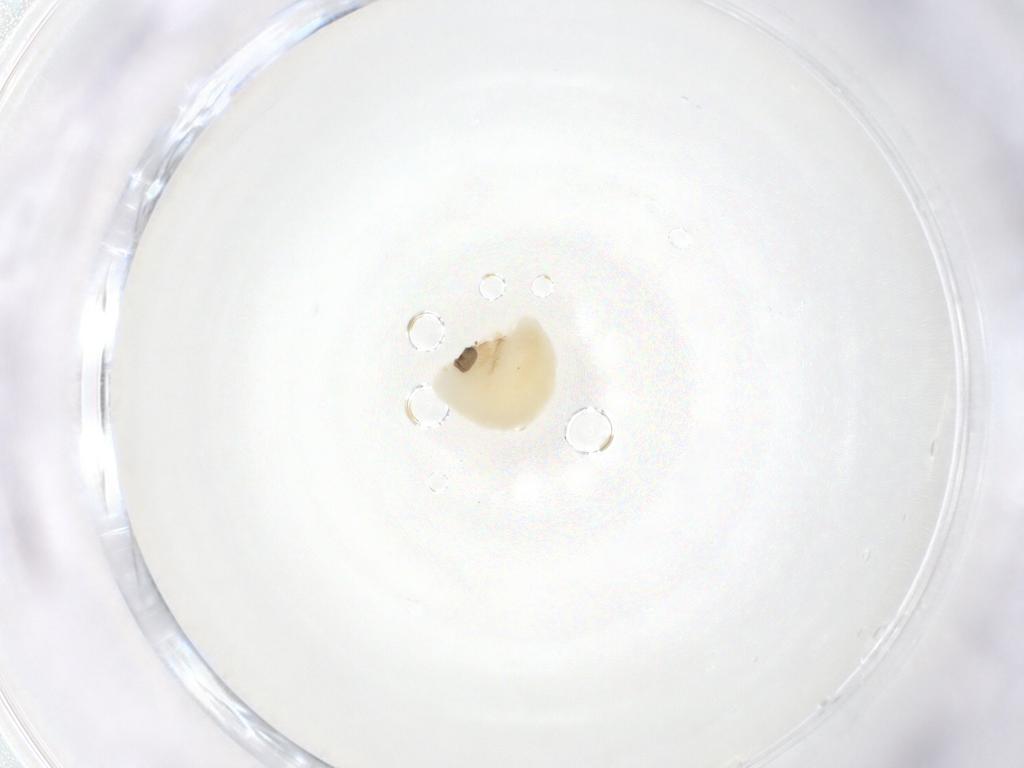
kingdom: Animalia
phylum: Arthropoda
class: Insecta
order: Hymenoptera
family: Eulophidae
